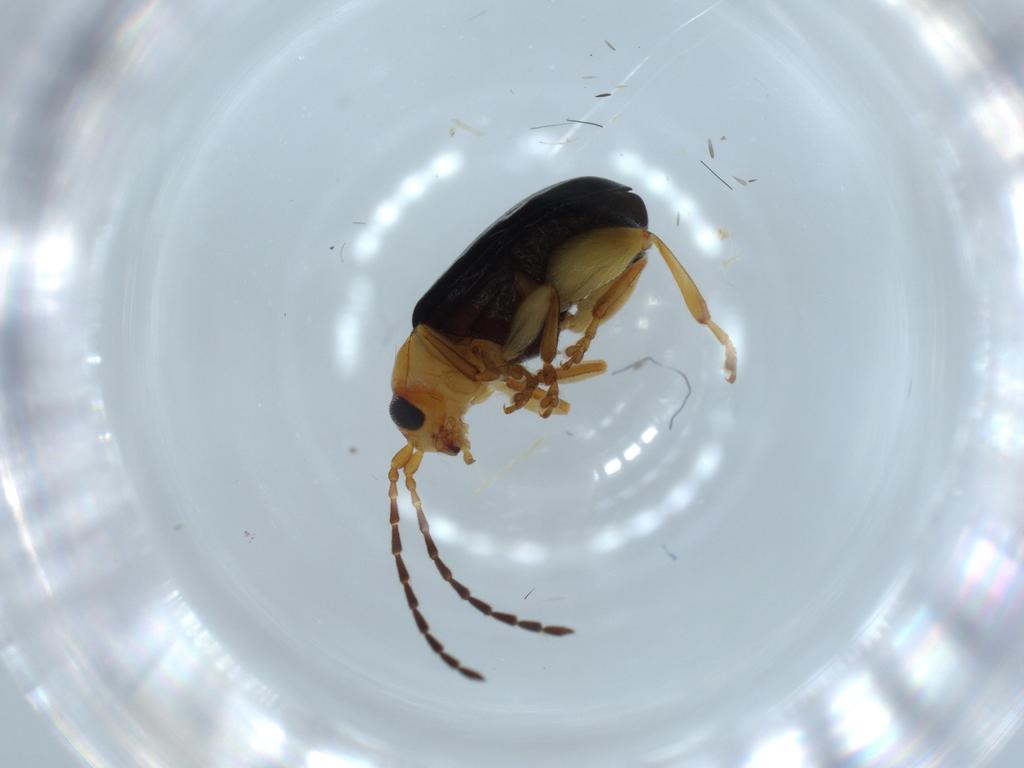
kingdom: Animalia
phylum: Arthropoda
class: Insecta
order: Coleoptera
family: Chrysomelidae
